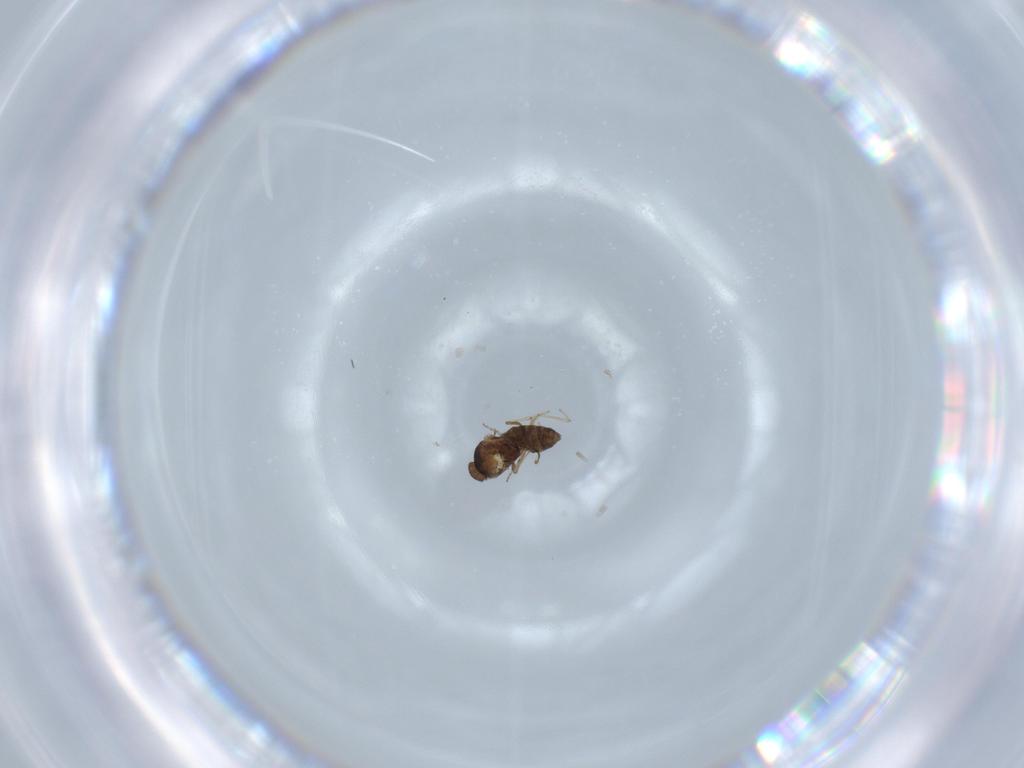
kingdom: Animalia
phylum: Arthropoda
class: Insecta
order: Diptera
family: Ceratopogonidae
